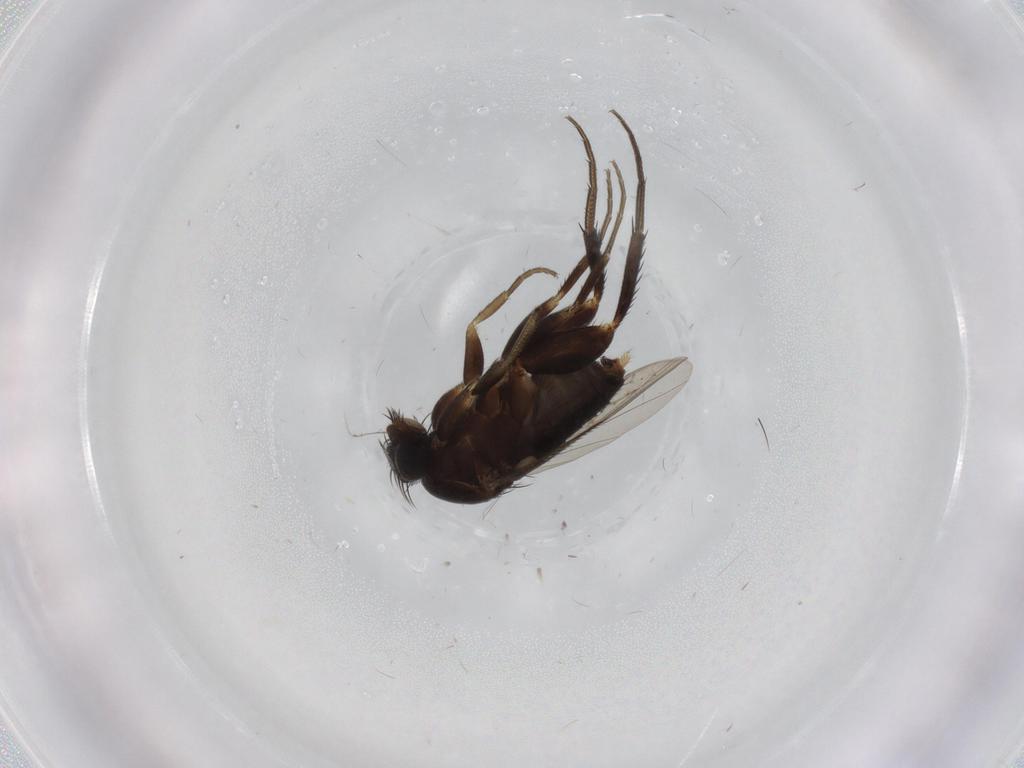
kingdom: Animalia
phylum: Arthropoda
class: Insecta
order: Diptera
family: Phoridae
